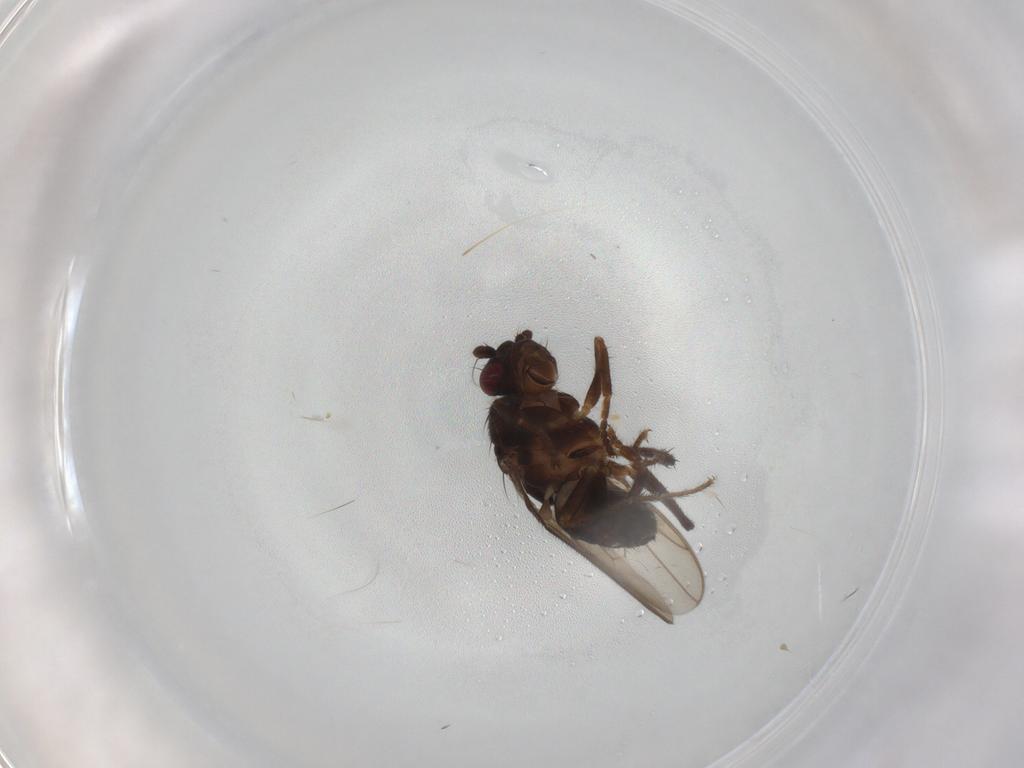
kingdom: Animalia
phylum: Arthropoda
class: Insecta
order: Diptera
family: Sphaeroceridae
